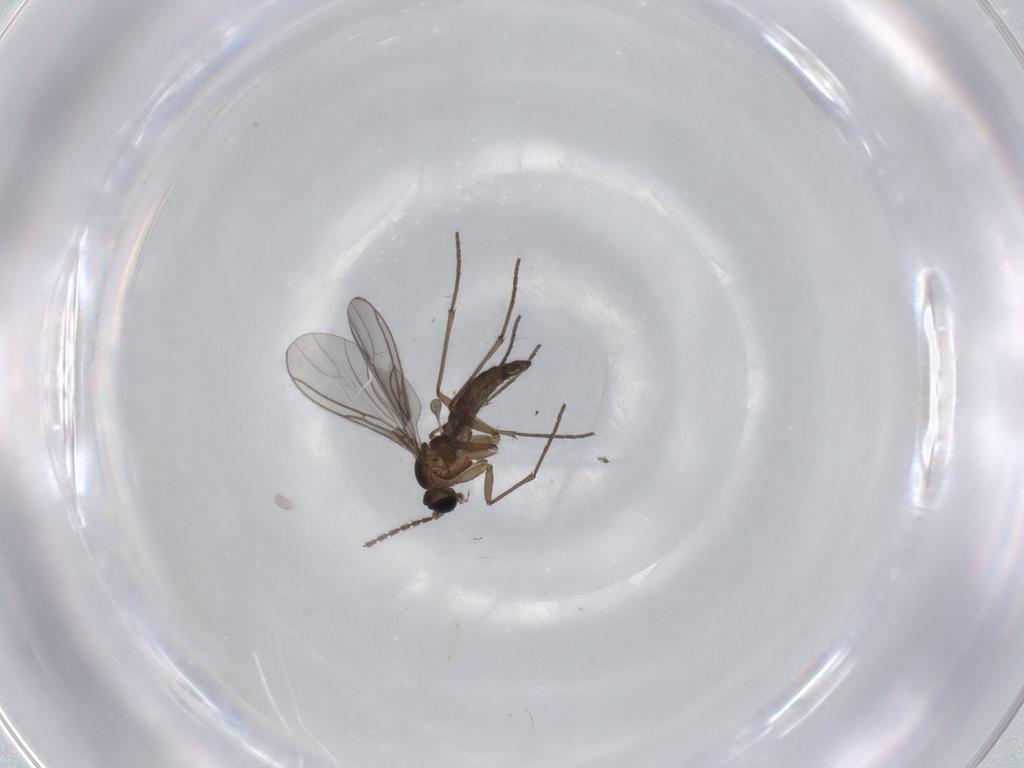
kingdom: Animalia
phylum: Arthropoda
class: Insecta
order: Diptera
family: Sciaridae
